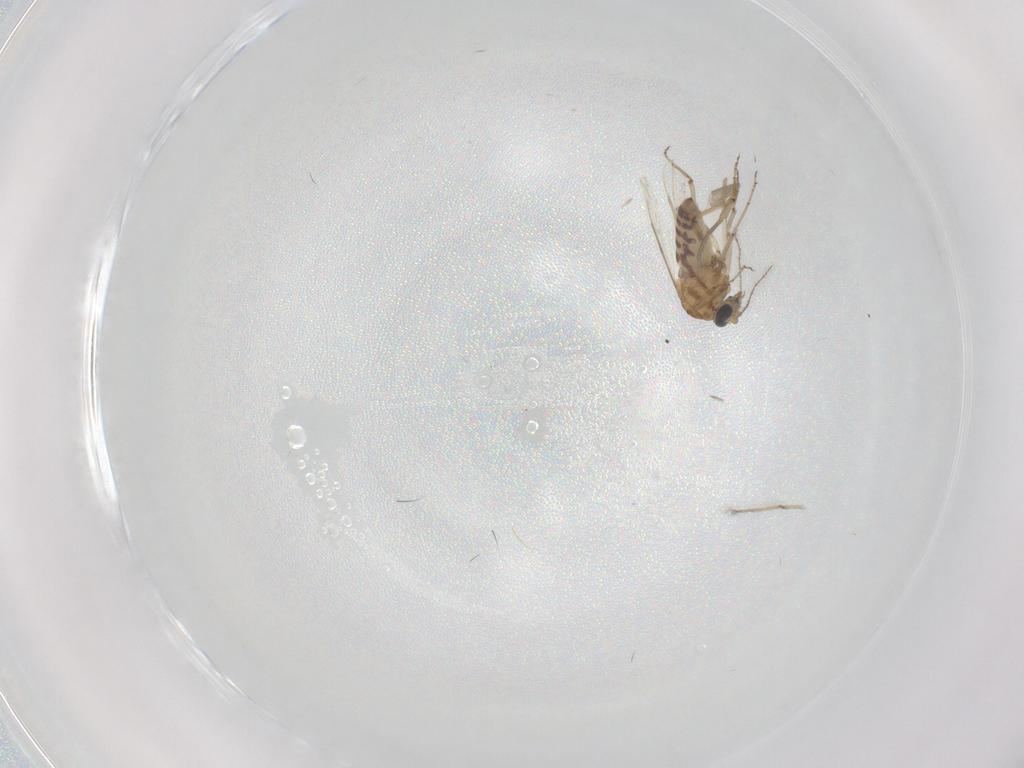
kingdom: Animalia
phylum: Arthropoda
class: Insecta
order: Diptera
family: Ceratopogonidae
